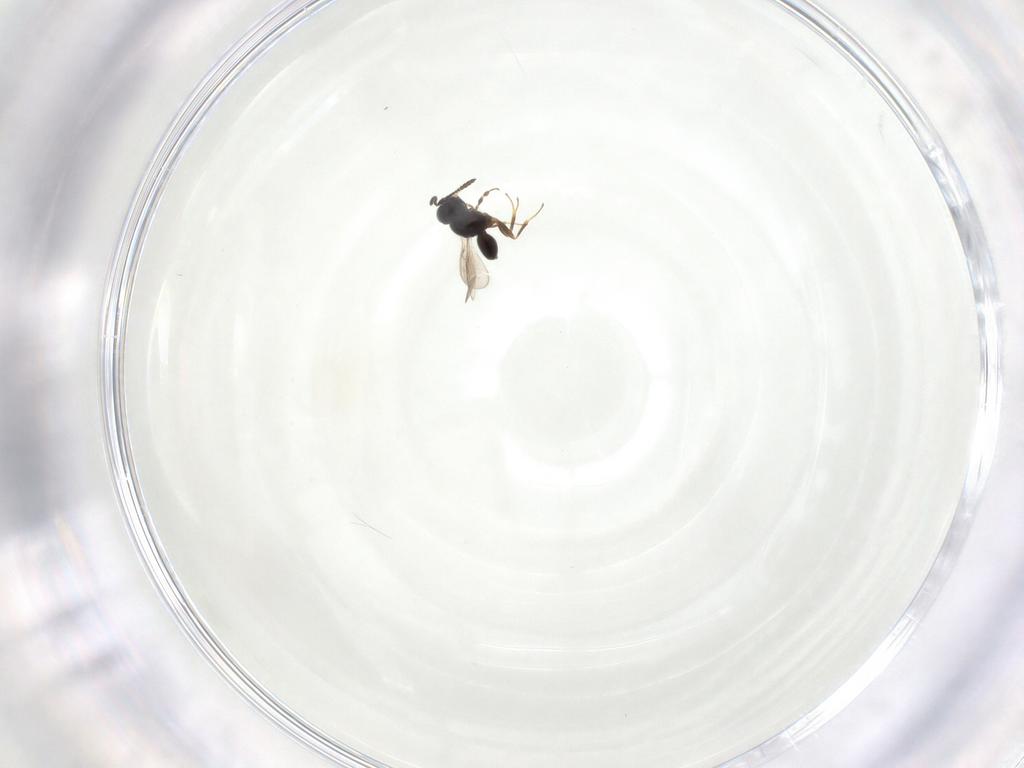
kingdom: Animalia
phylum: Arthropoda
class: Insecta
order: Hymenoptera
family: Scelionidae
